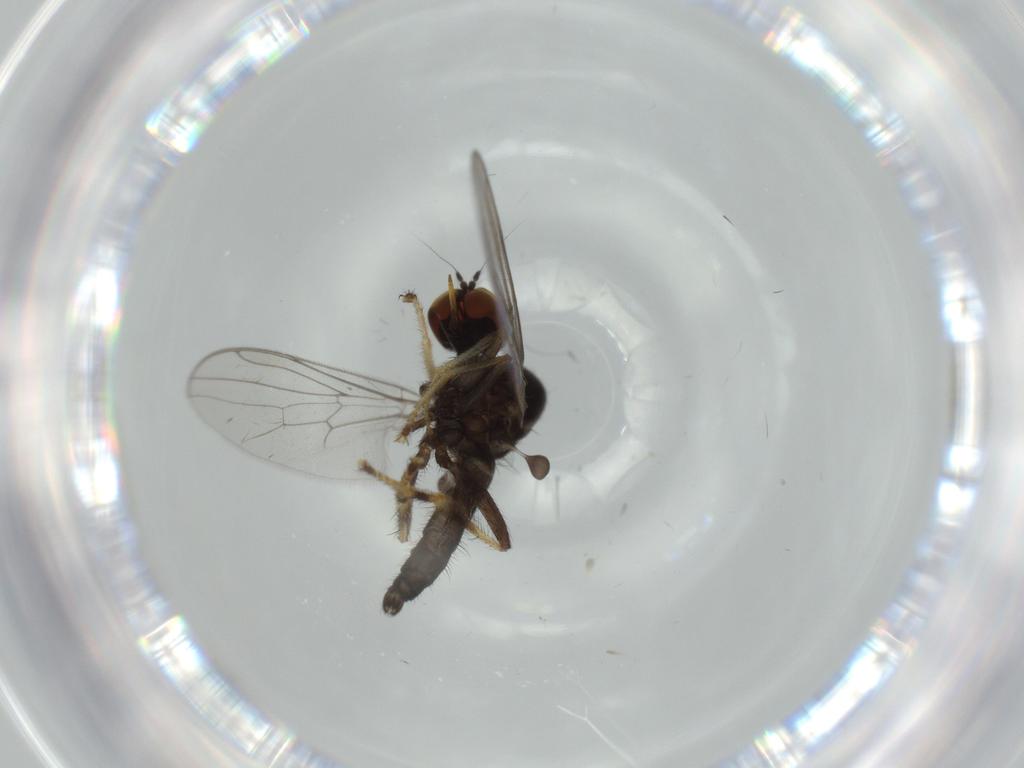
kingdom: Animalia
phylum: Arthropoda
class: Insecta
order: Diptera
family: Hybotidae
